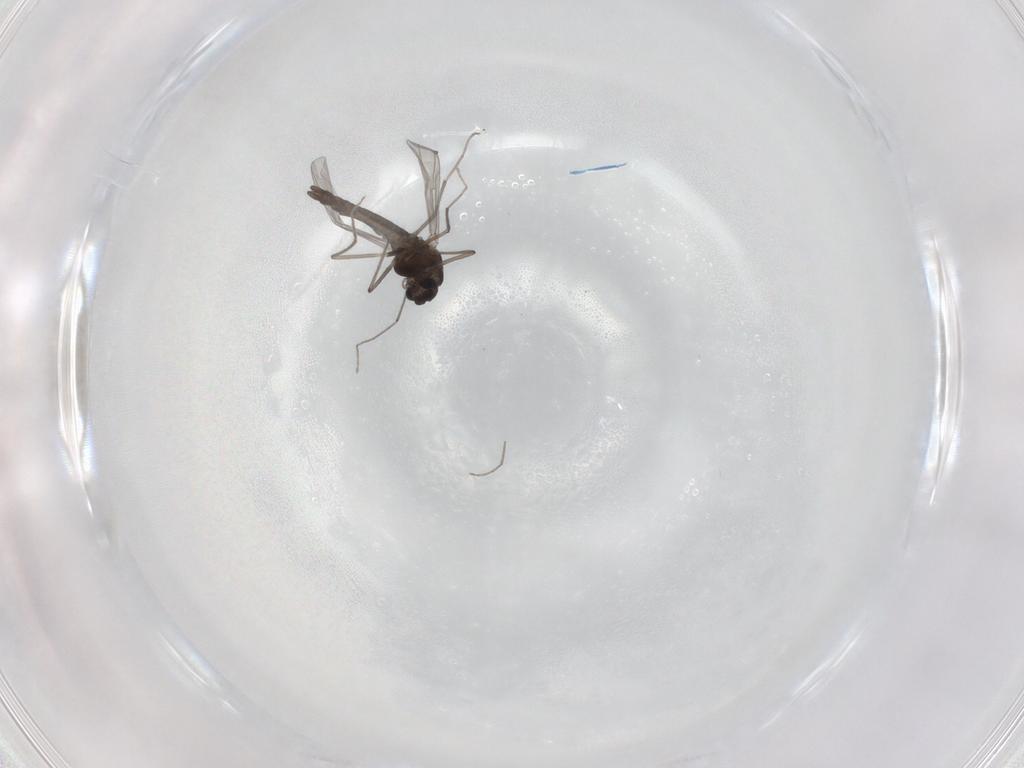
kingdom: Animalia
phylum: Arthropoda
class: Insecta
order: Diptera
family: Chironomidae
